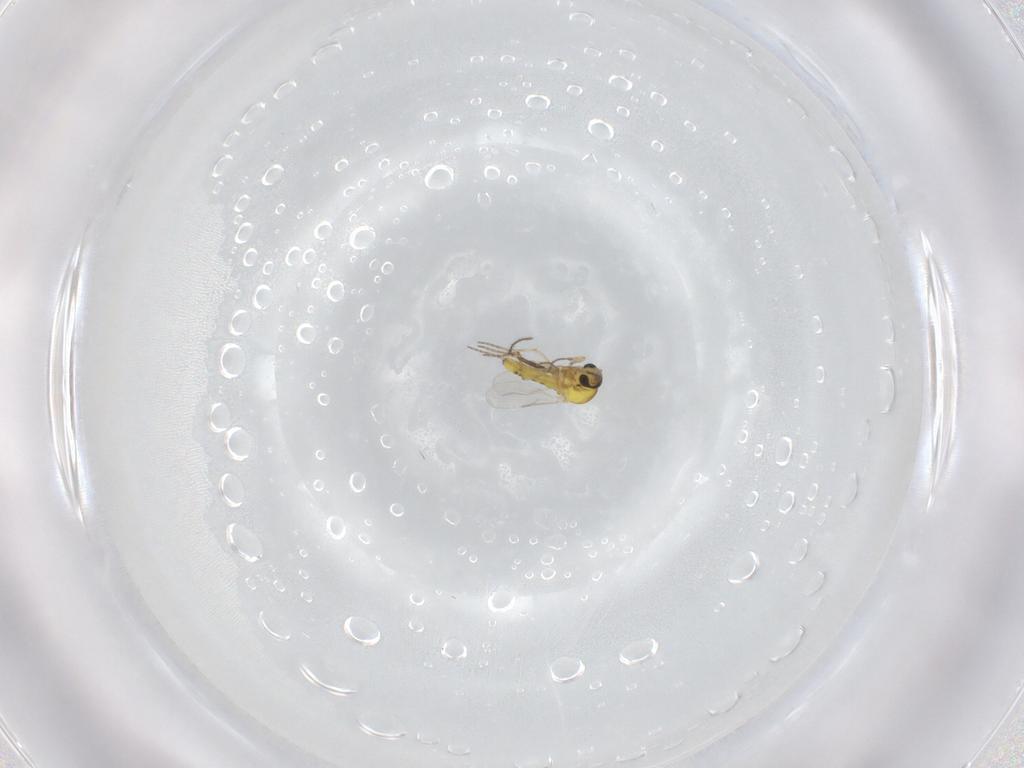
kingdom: Animalia
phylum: Arthropoda
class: Insecta
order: Diptera
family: Ceratopogonidae
